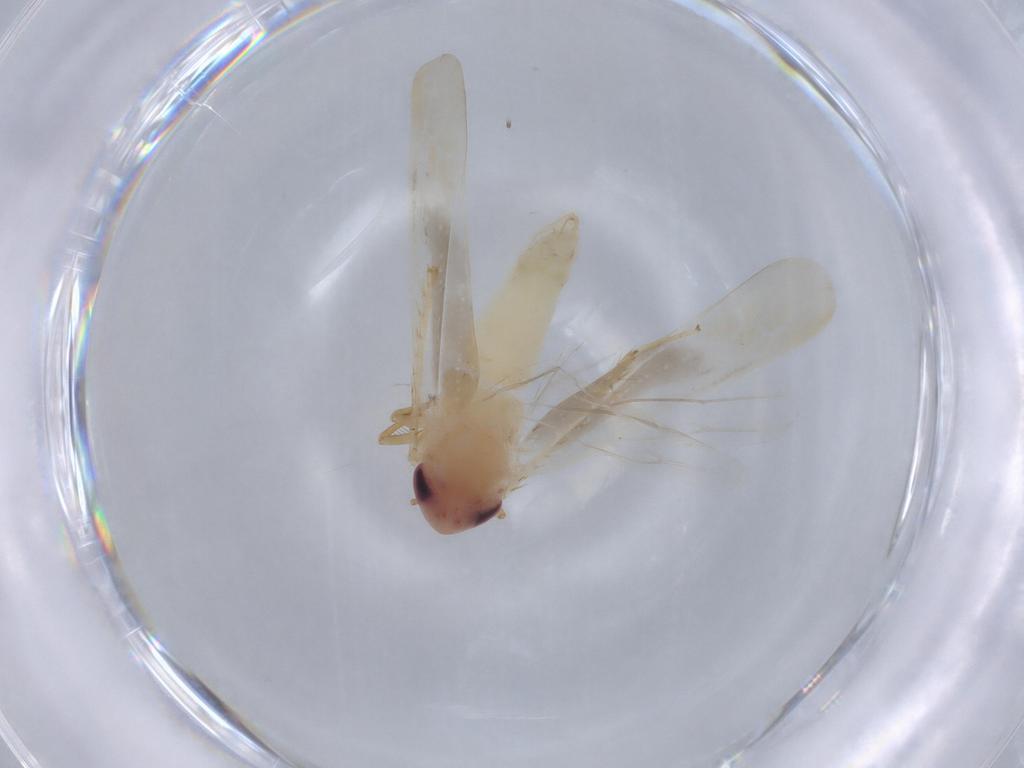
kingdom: Animalia
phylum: Arthropoda
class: Insecta
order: Hemiptera
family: Cicadellidae
